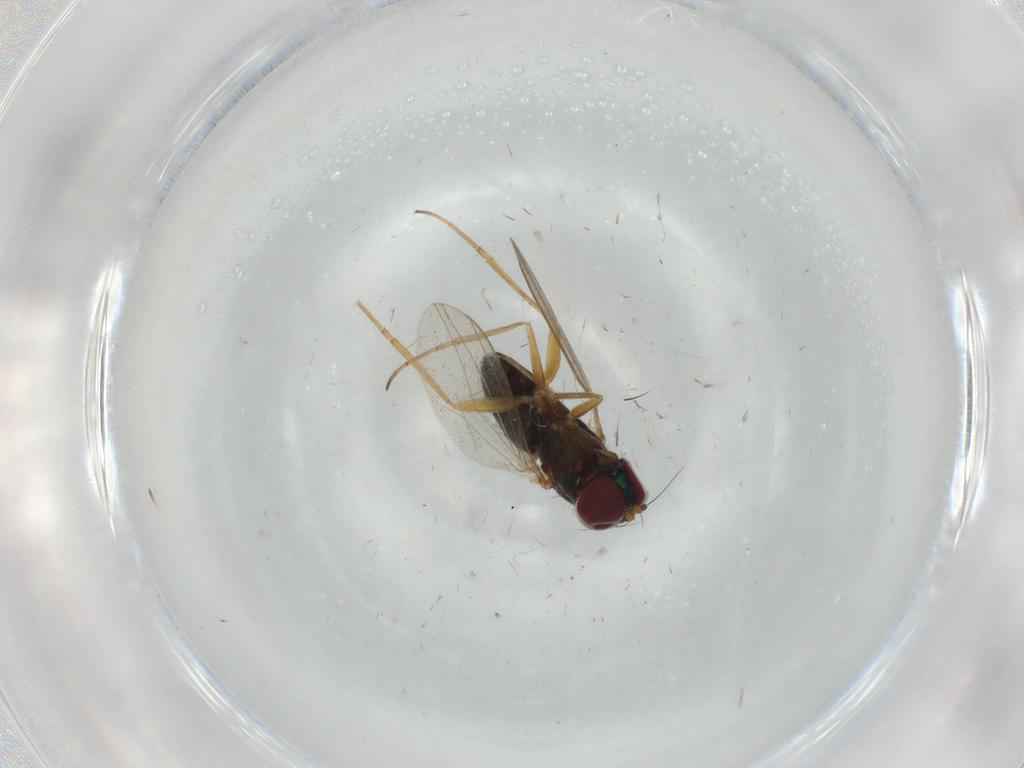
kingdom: Animalia
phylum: Arthropoda
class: Insecta
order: Diptera
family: Dolichopodidae
